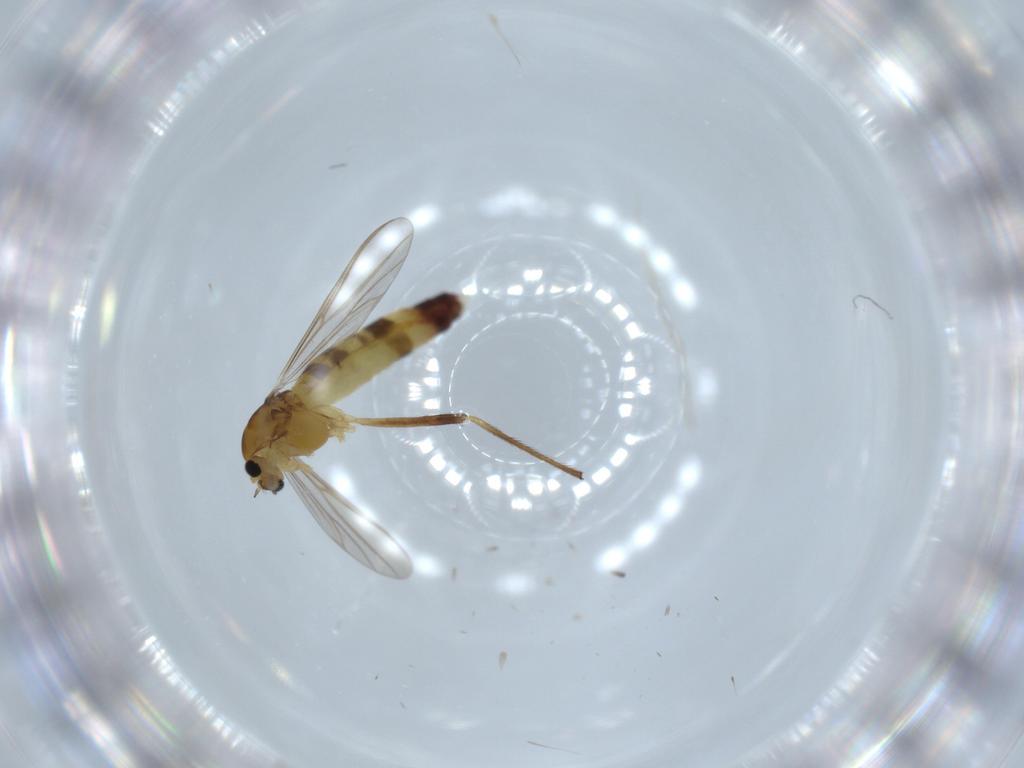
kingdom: Animalia
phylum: Arthropoda
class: Insecta
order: Diptera
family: Chironomidae
